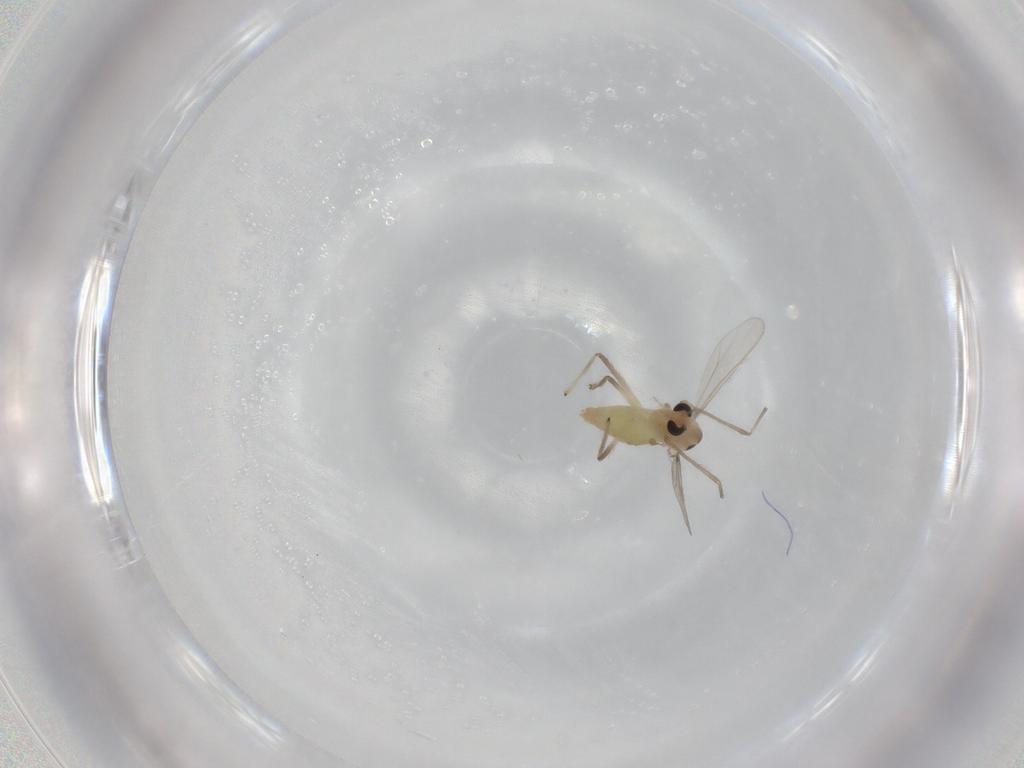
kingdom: Animalia
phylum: Arthropoda
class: Insecta
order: Diptera
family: Chironomidae
